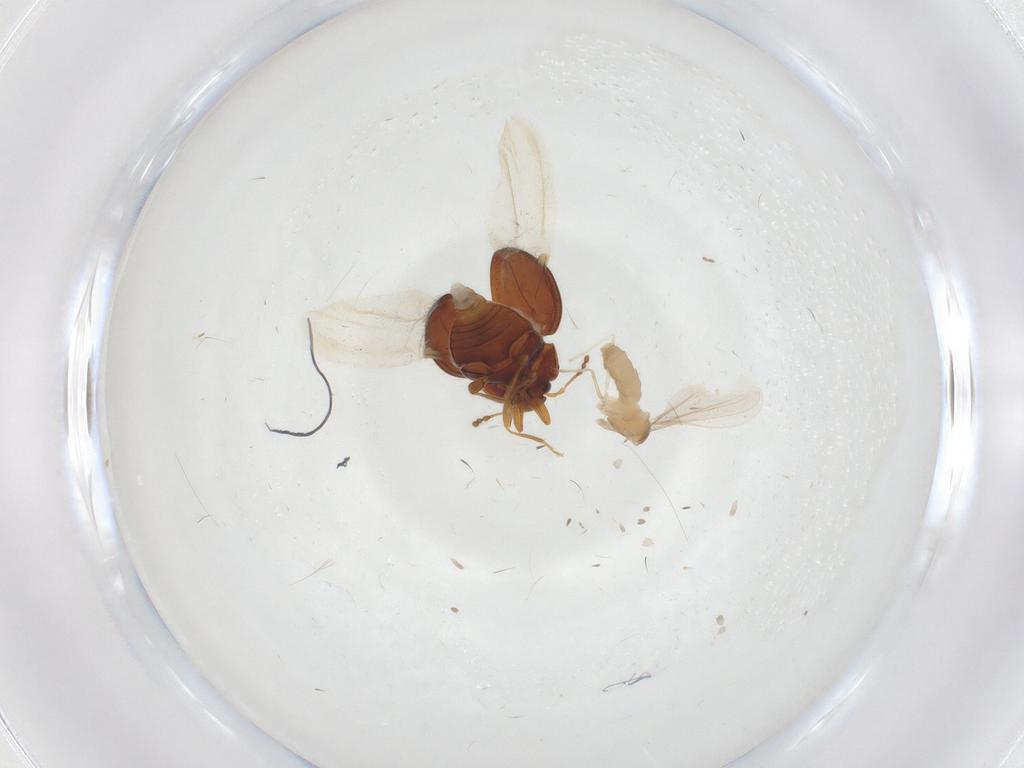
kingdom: Animalia
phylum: Arthropoda
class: Insecta
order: Diptera
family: Cecidomyiidae
